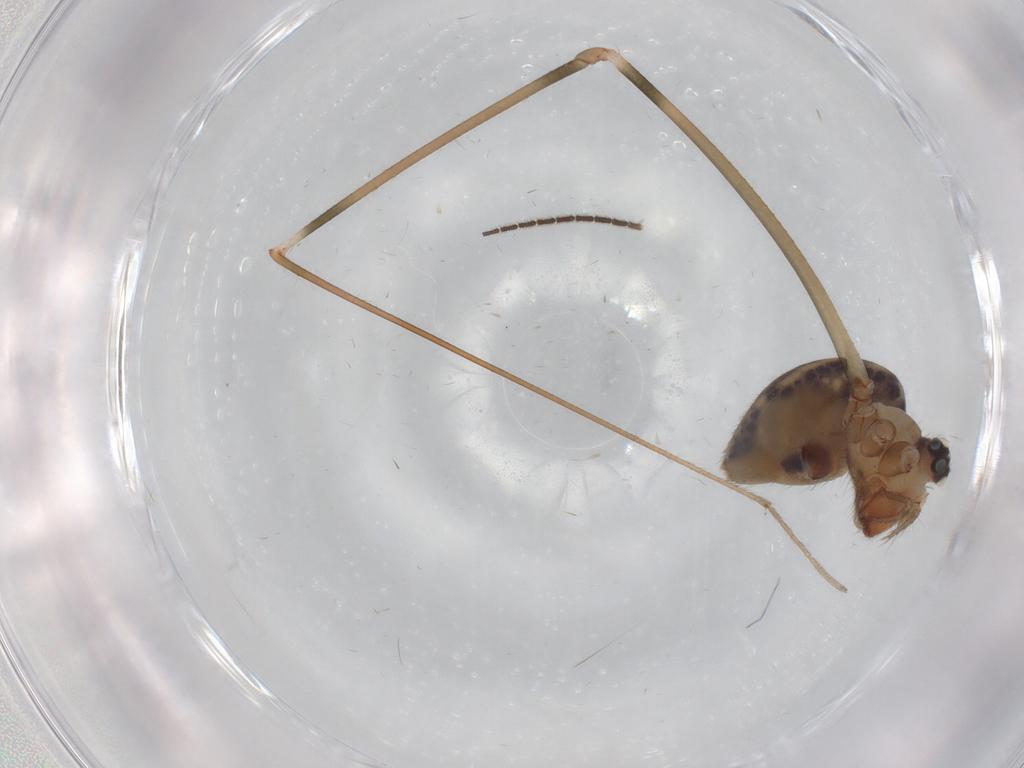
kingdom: Animalia
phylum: Arthropoda
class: Arachnida
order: Araneae
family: Pholcidae
